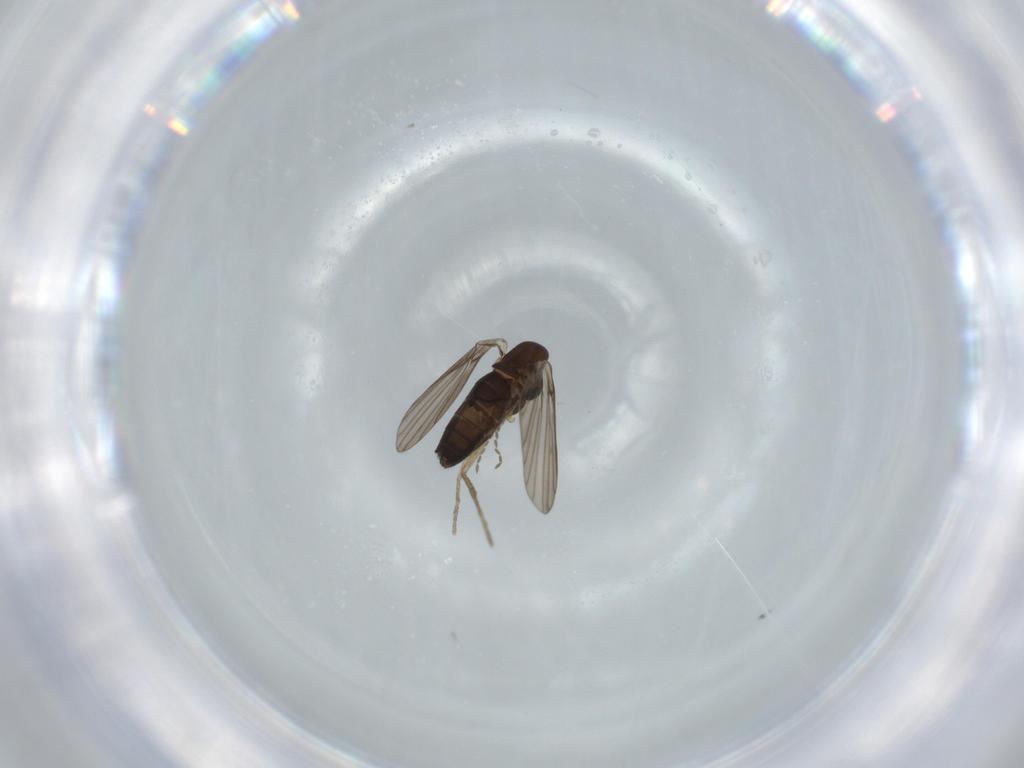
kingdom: Animalia
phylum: Arthropoda
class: Insecta
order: Diptera
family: Psychodidae
